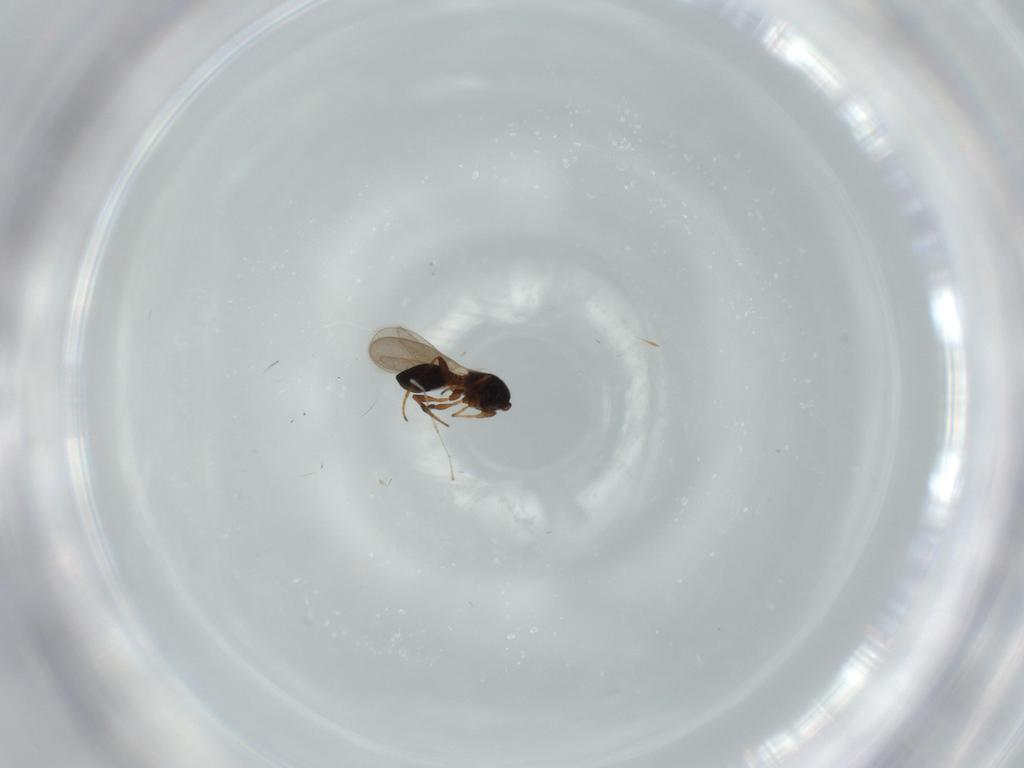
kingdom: Animalia
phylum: Arthropoda
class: Insecta
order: Hymenoptera
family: Platygastridae
